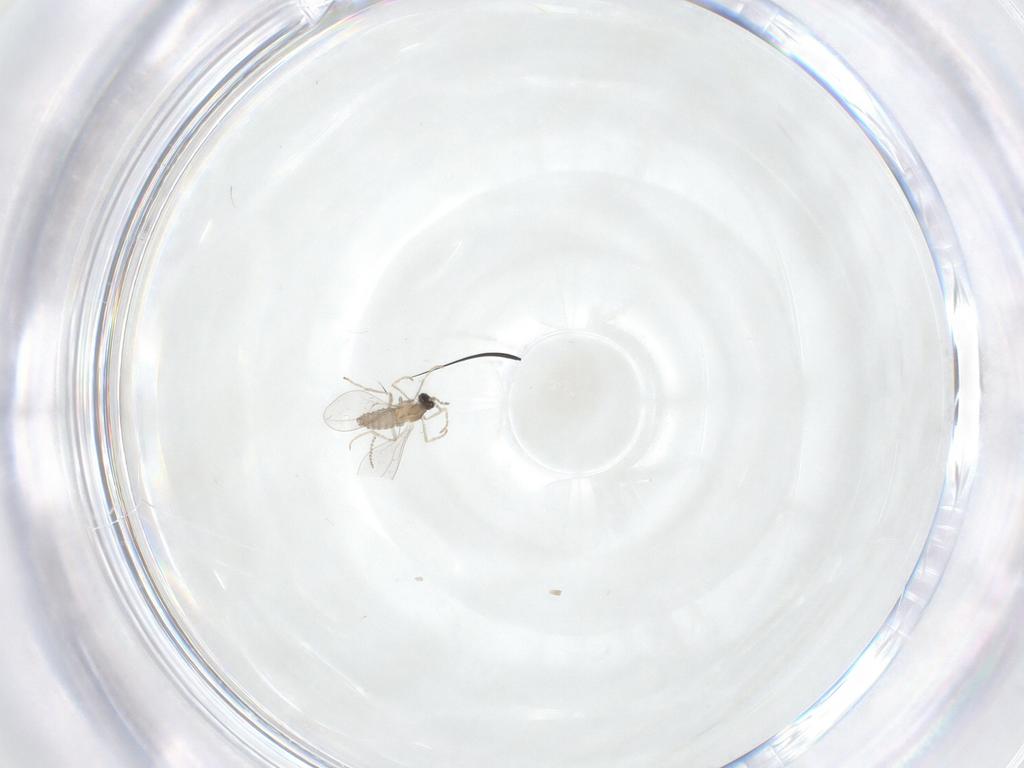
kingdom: Animalia
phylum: Arthropoda
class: Insecta
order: Diptera
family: Cecidomyiidae
